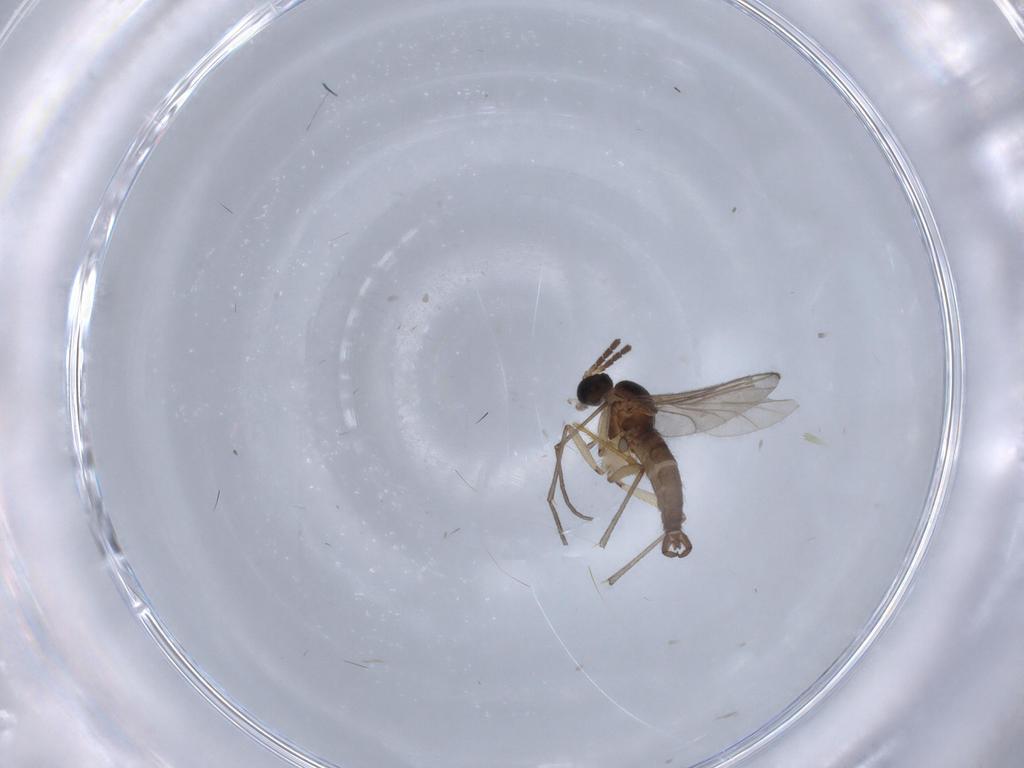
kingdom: Animalia
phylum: Arthropoda
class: Insecta
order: Diptera
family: Sciaridae
